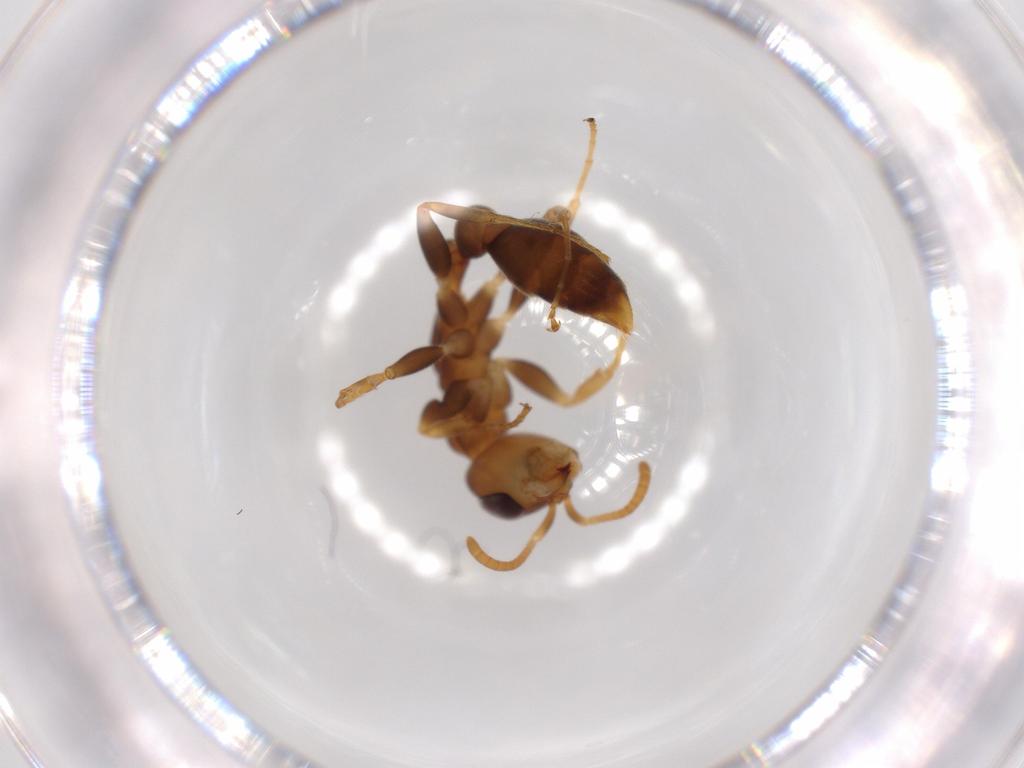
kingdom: Animalia
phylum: Arthropoda
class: Insecta
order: Hymenoptera
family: Formicidae
